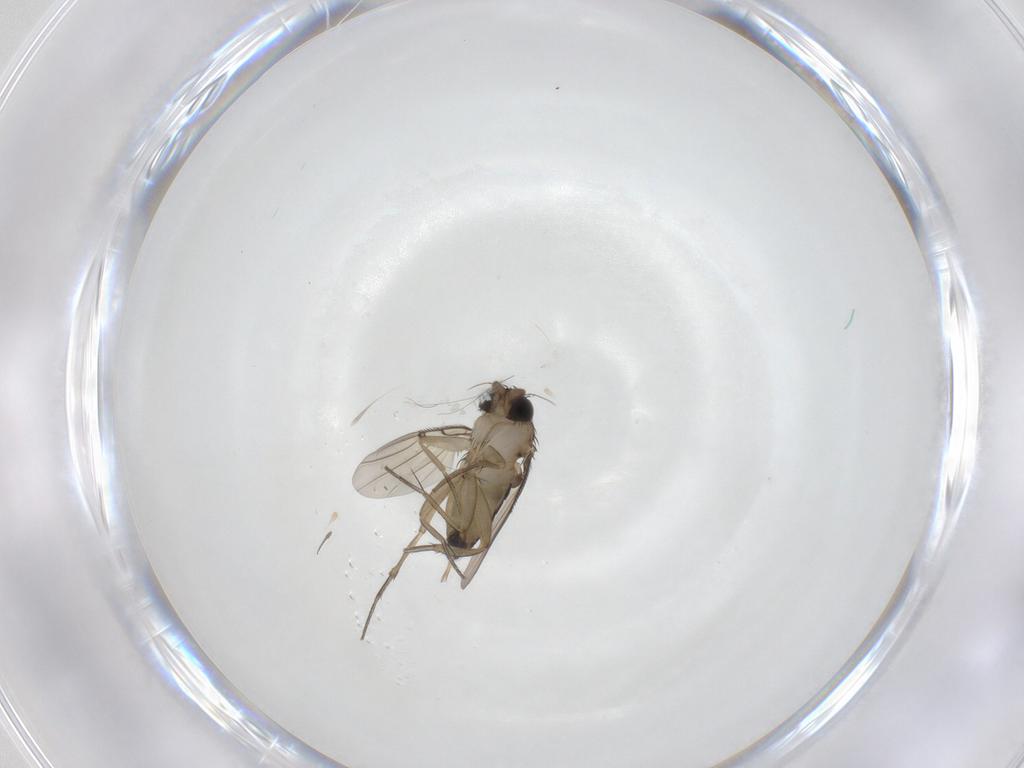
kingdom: Animalia
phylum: Arthropoda
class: Insecta
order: Diptera
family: Phoridae
